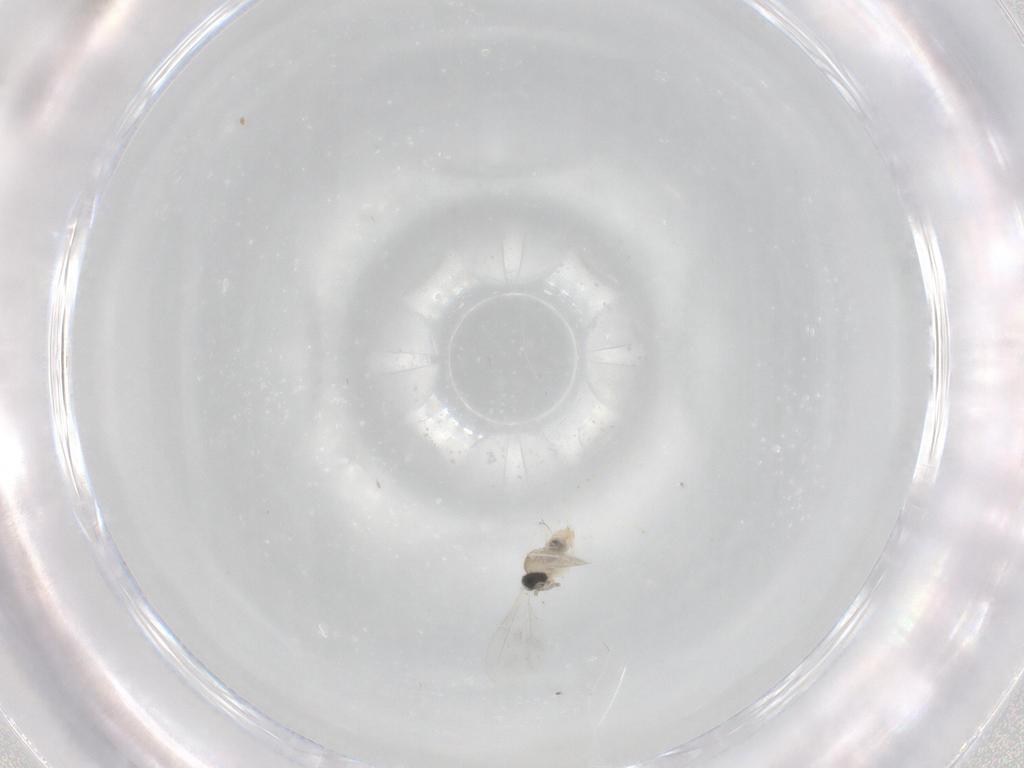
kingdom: Animalia
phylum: Arthropoda
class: Insecta
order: Diptera
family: Cecidomyiidae
